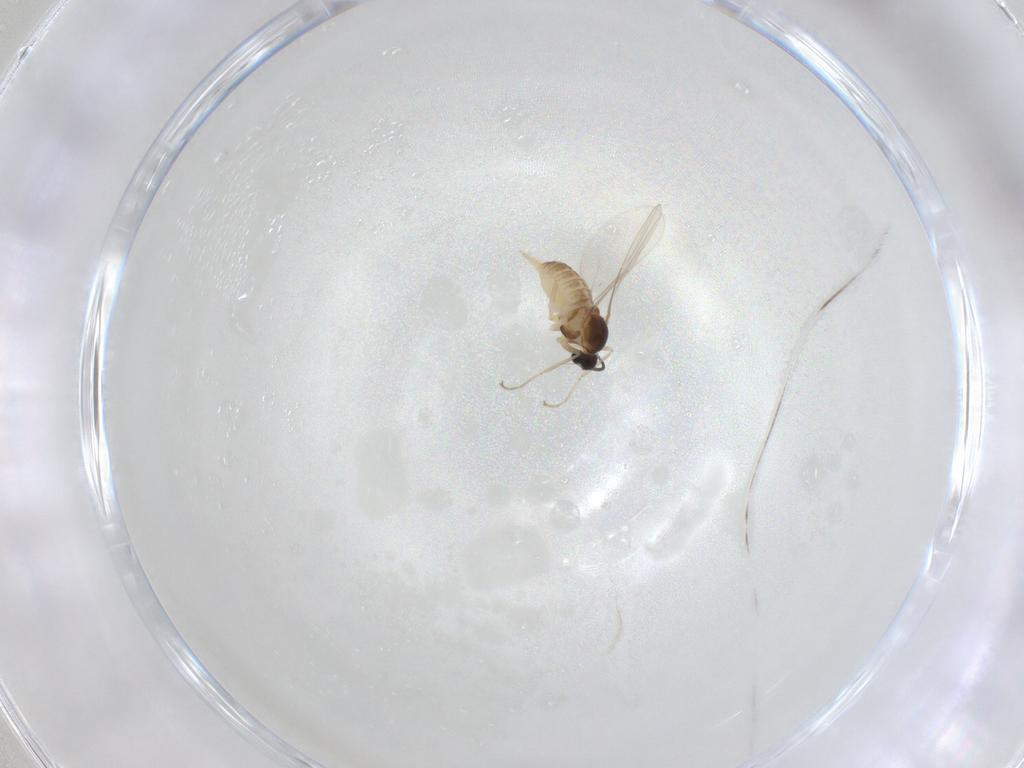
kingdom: Animalia
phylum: Arthropoda
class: Insecta
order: Diptera
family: Cecidomyiidae
